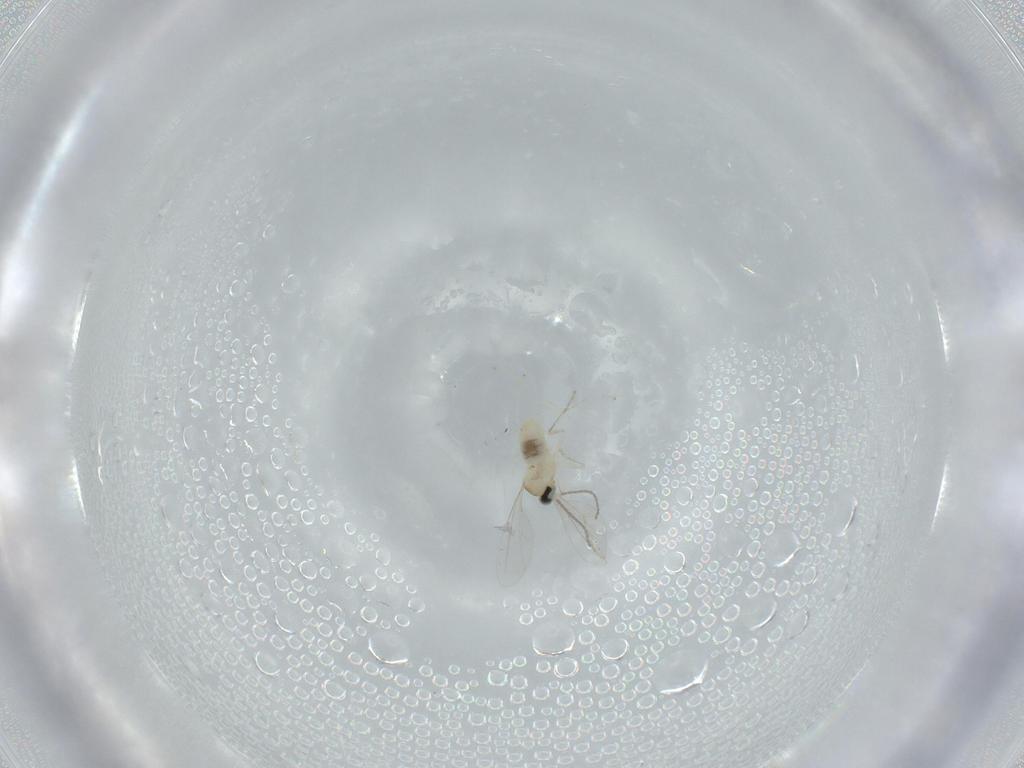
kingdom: Animalia
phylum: Arthropoda
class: Insecta
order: Diptera
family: Cecidomyiidae
